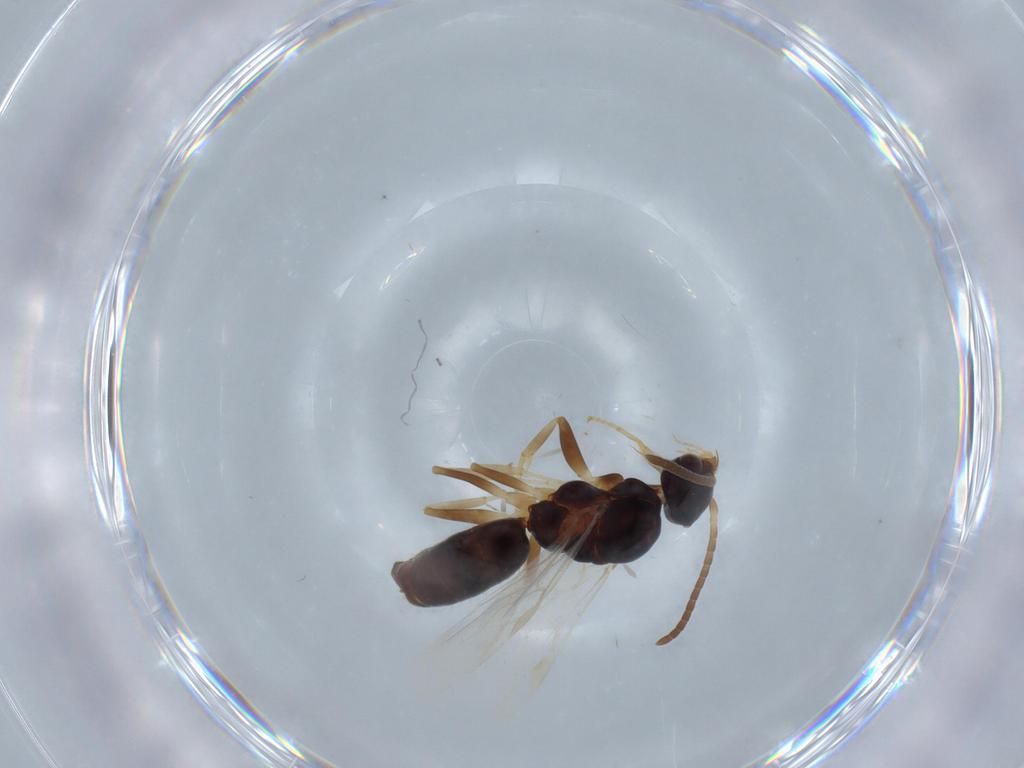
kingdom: Animalia
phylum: Arthropoda
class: Insecta
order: Hymenoptera
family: Formicidae
